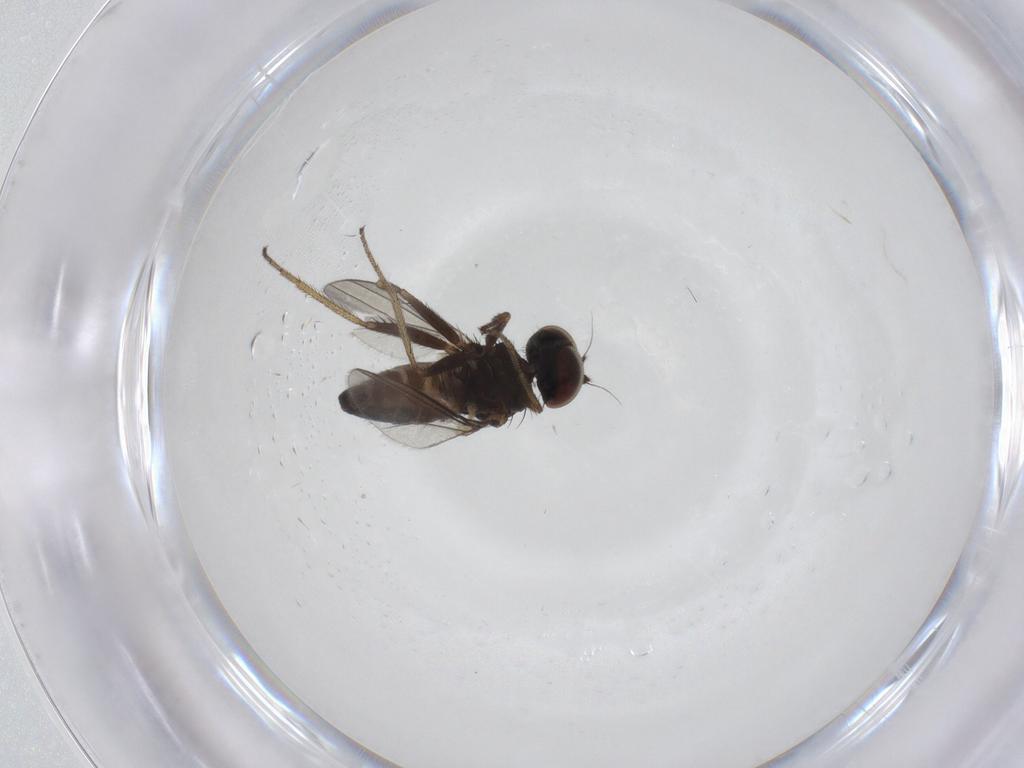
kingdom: Animalia
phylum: Arthropoda
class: Insecta
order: Diptera
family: Dolichopodidae
